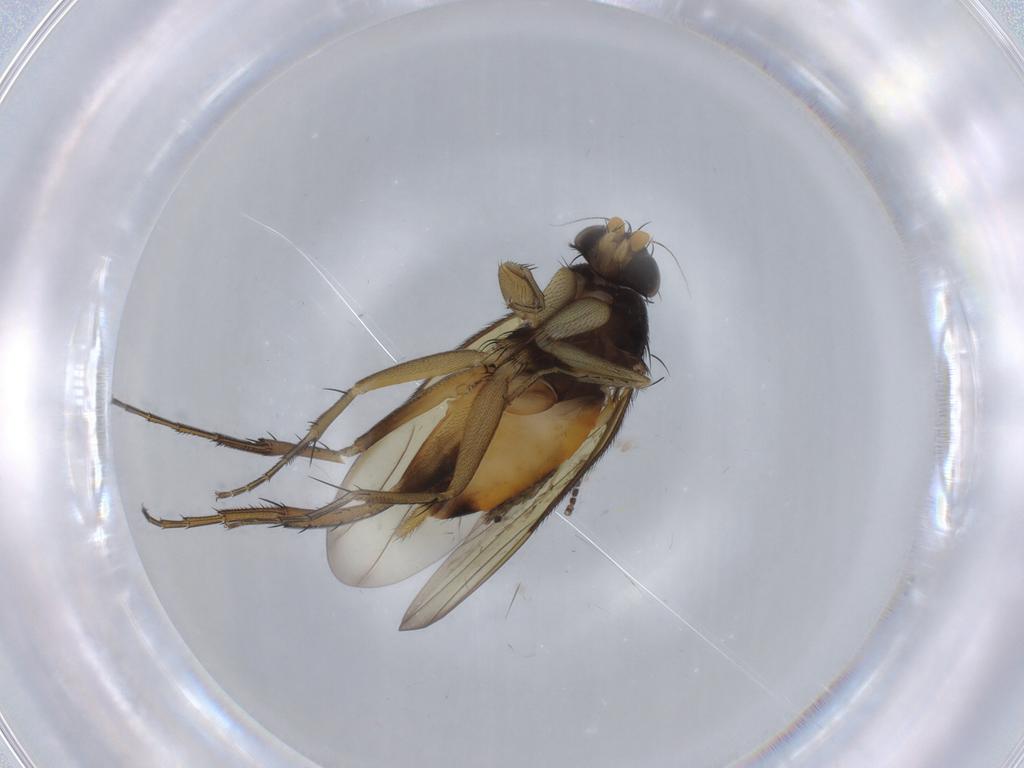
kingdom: Animalia
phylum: Arthropoda
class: Insecta
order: Diptera
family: Phoridae
